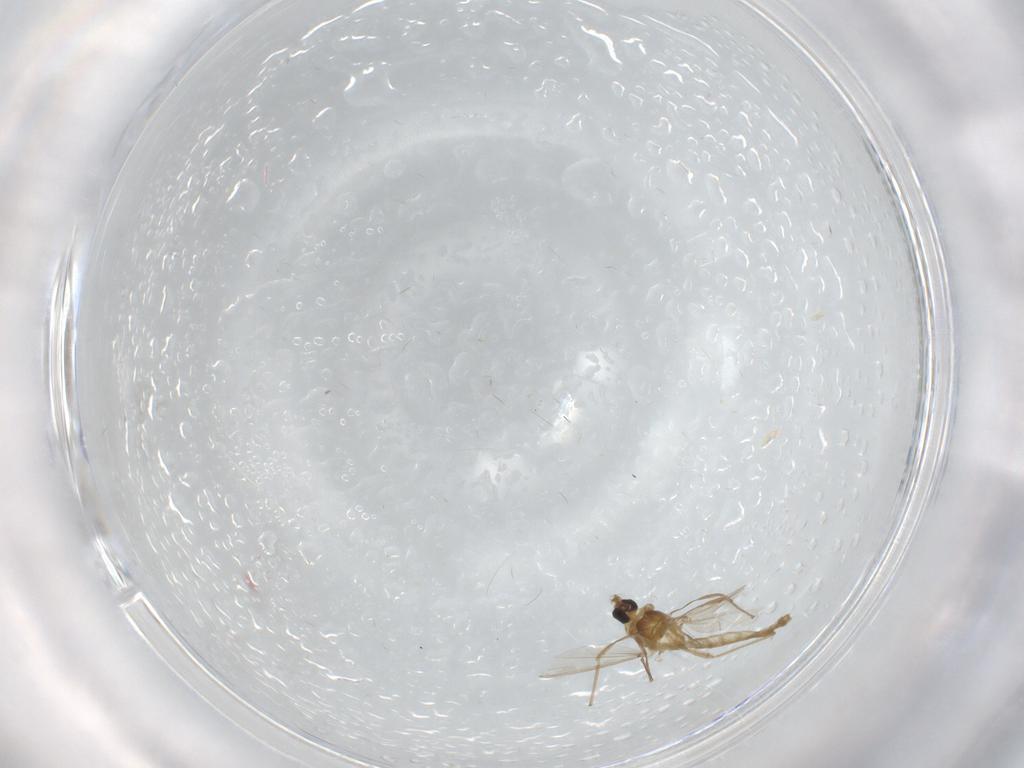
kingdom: Animalia
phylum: Arthropoda
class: Insecta
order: Diptera
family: Chironomidae
